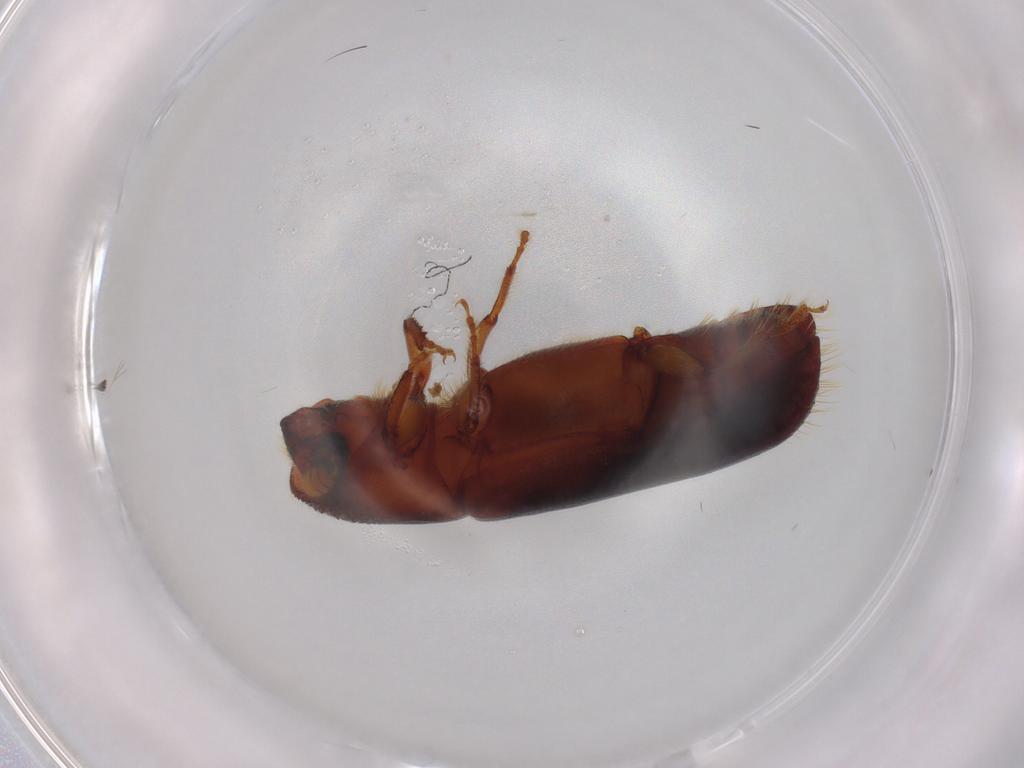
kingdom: Animalia
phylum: Arthropoda
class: Insecta
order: Coleoptera
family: Curculionidae
